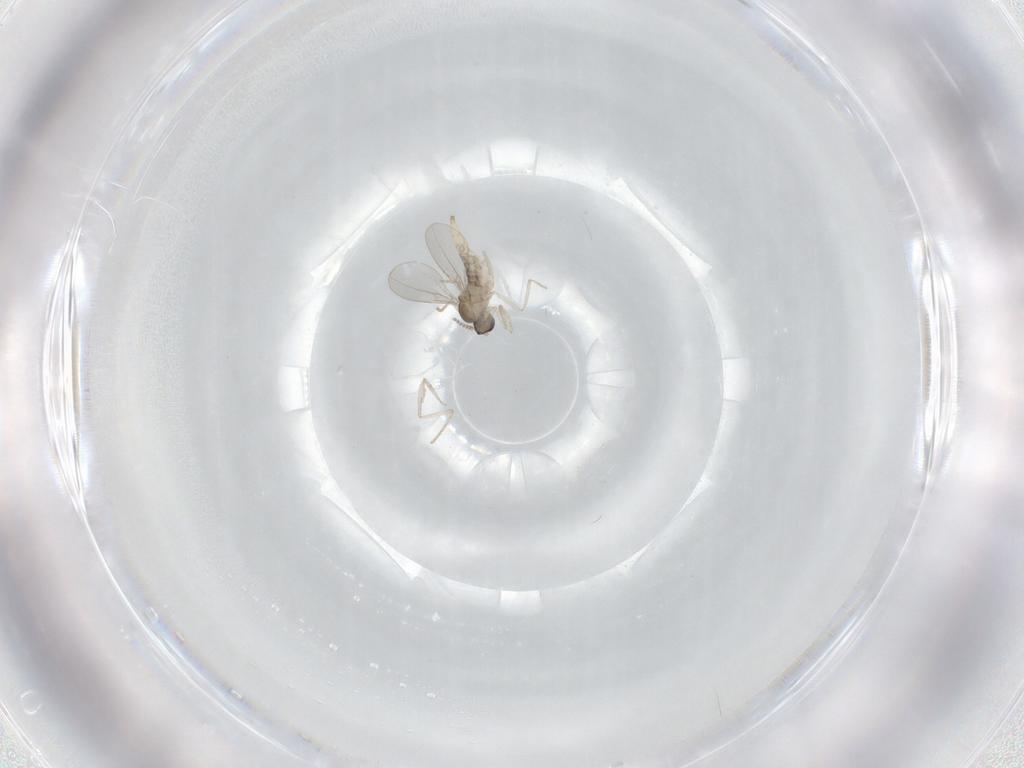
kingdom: Animalia
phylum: Arthropoda
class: Insecta
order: Diptera
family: Cecidomyiidae
